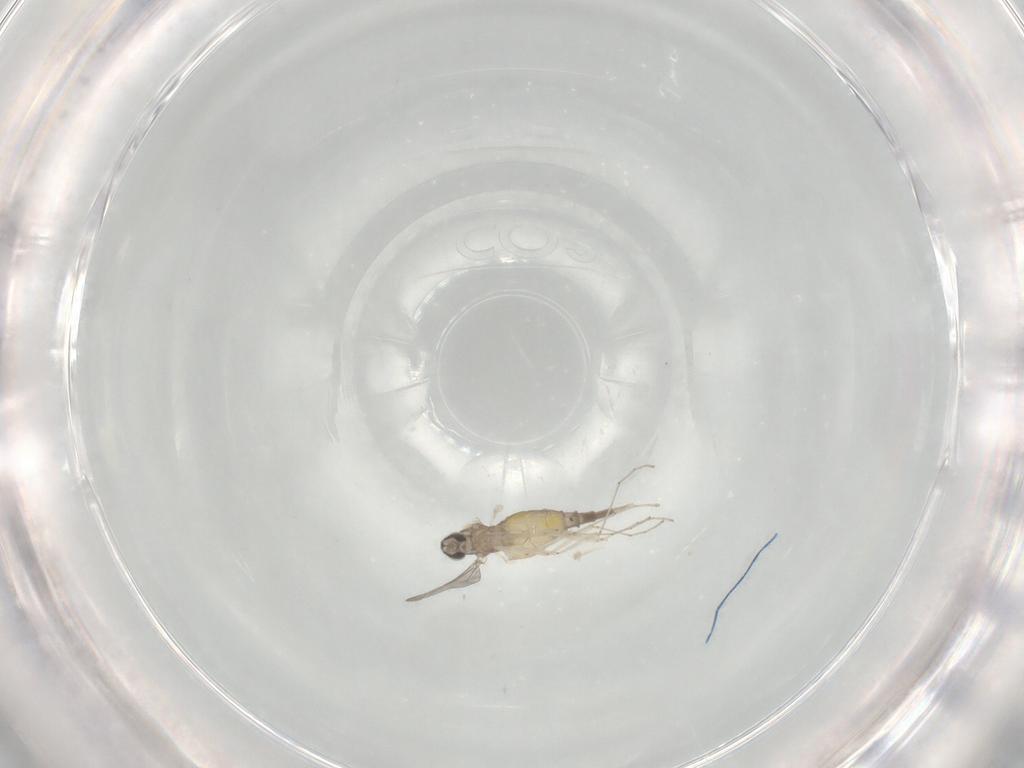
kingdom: Animalia
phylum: Arthropoda
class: Insecta
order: Diptera
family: Cecidomyiidae
